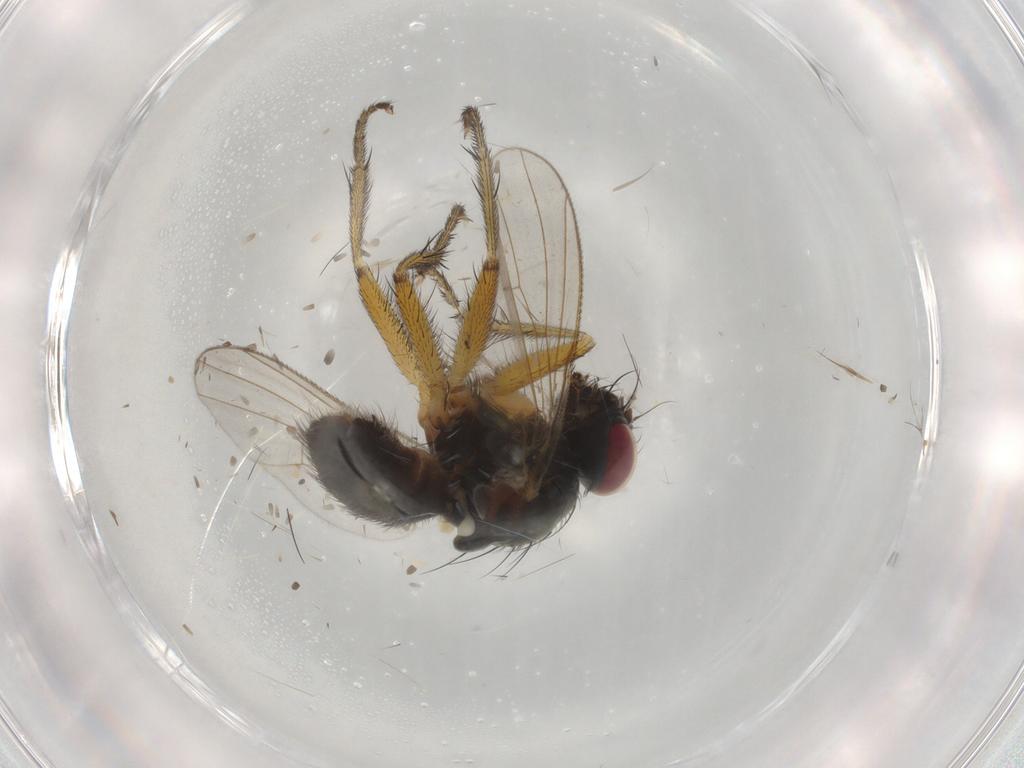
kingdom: Animalia
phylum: Arthropoda
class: Insecta
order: Diptera
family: Muscidae
